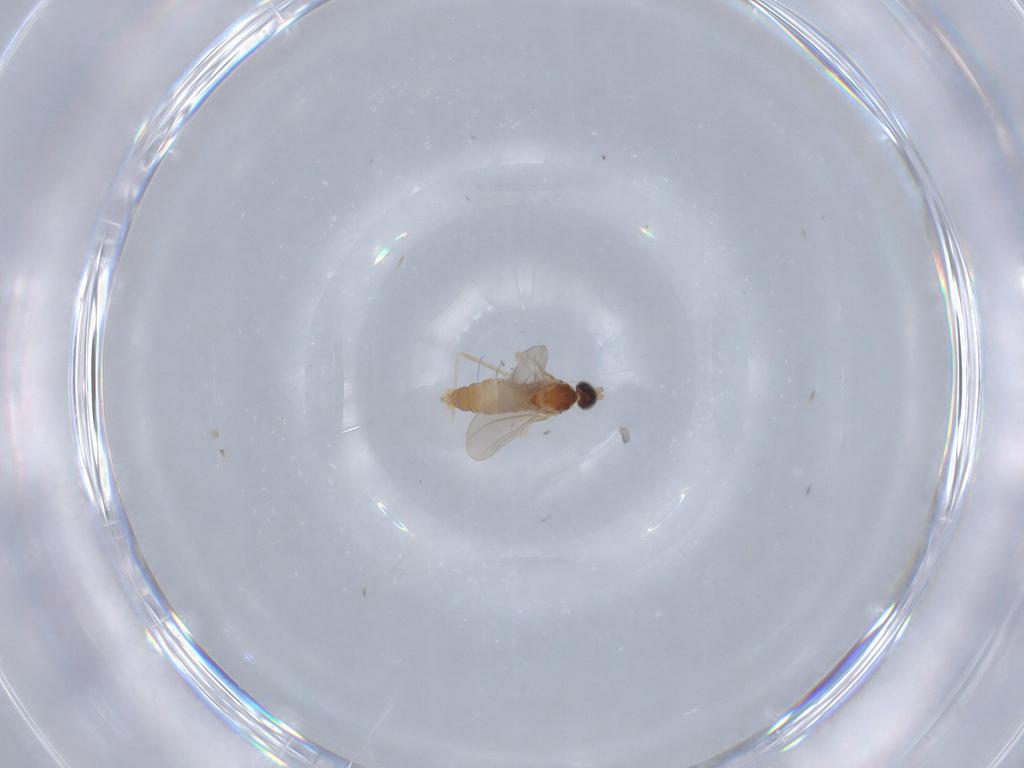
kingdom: Animalia
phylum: Arthropoda
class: Insecta
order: Diptera
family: Cecidomyiidae
